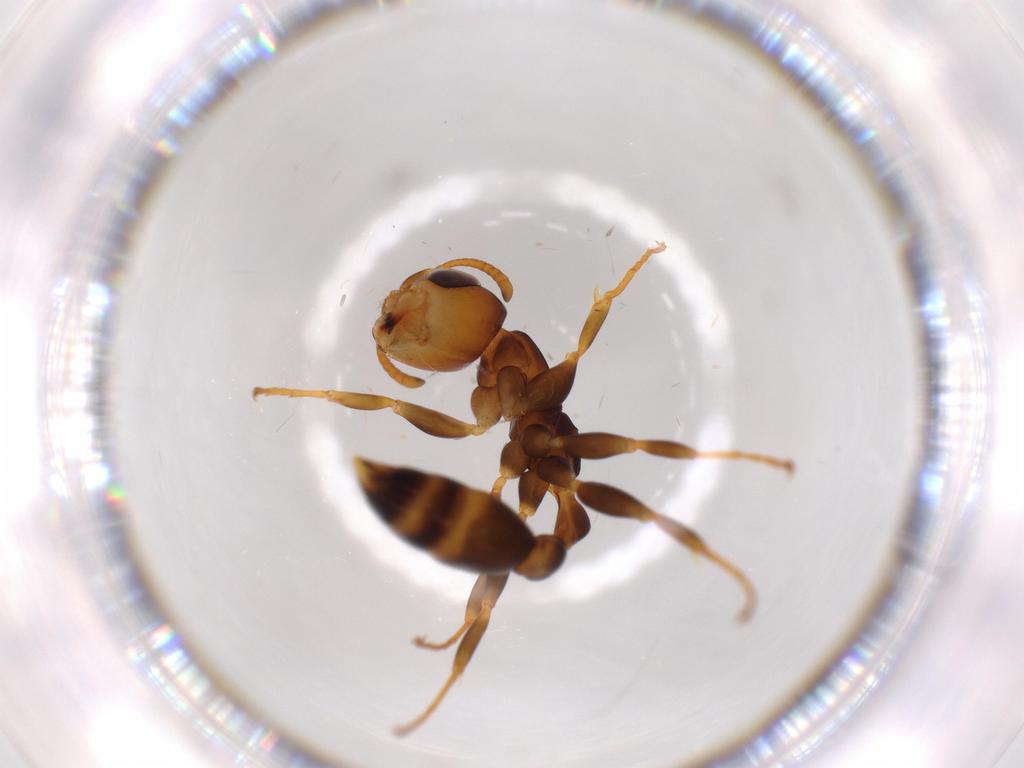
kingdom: Animalia
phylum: Arthropoda
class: Insecta
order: Hymenoptera
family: Formicidae
